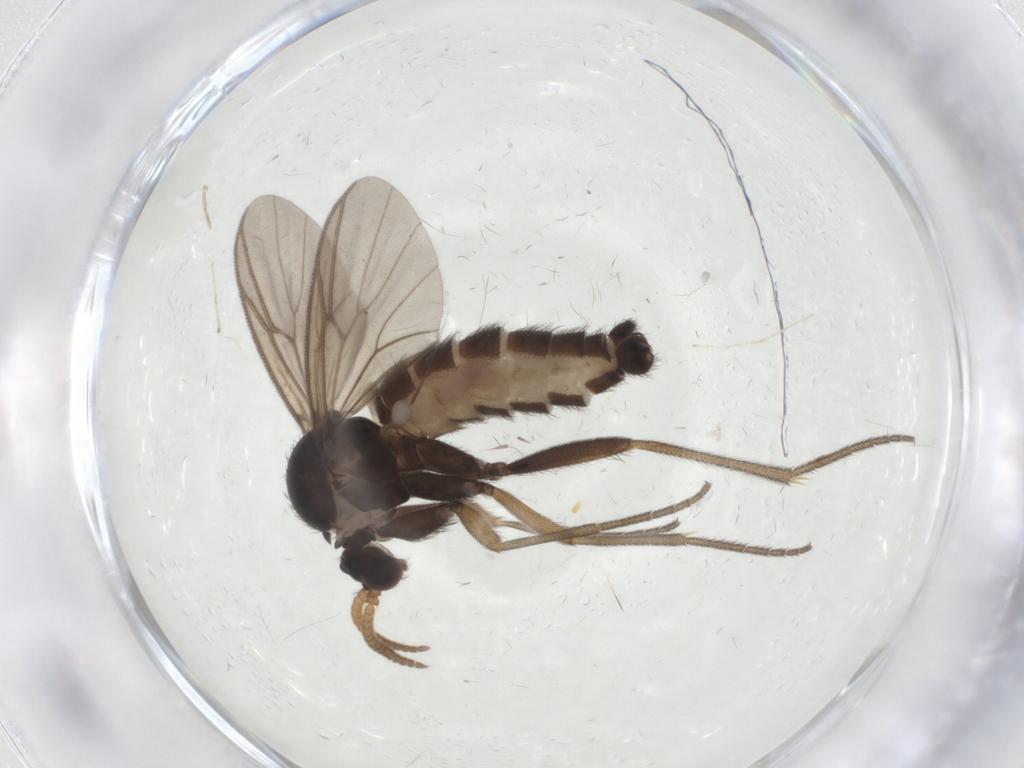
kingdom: Animalia
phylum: Arthropoda
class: Insecta
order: Diptera
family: Mycetophilidae
